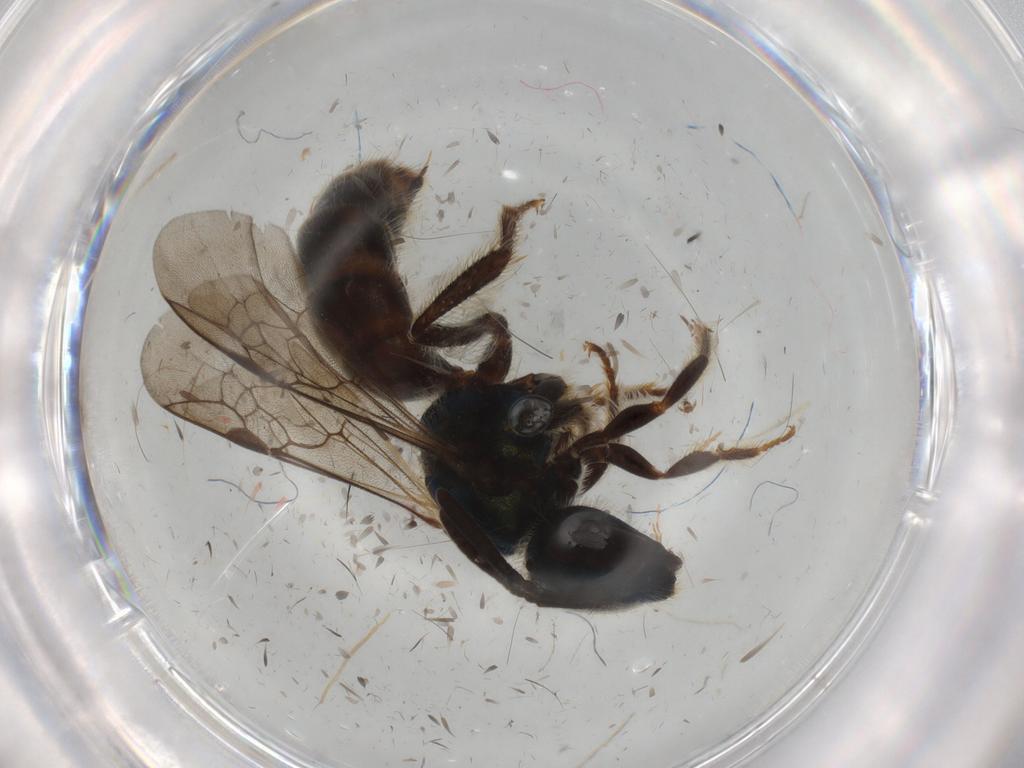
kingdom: Animalia
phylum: Arthropoda
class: Insecta
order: Hymenoptera
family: Halictidae
